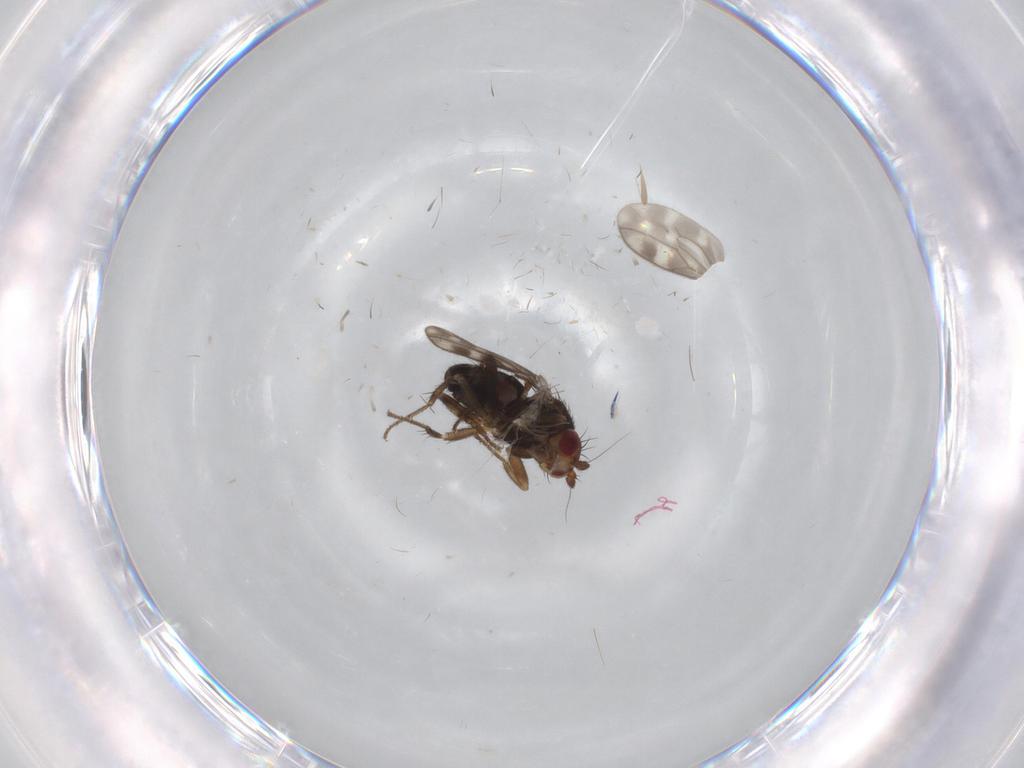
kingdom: Animalia
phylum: Arthropoda
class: Insecta
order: Diptera
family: Sphaeroceridae
